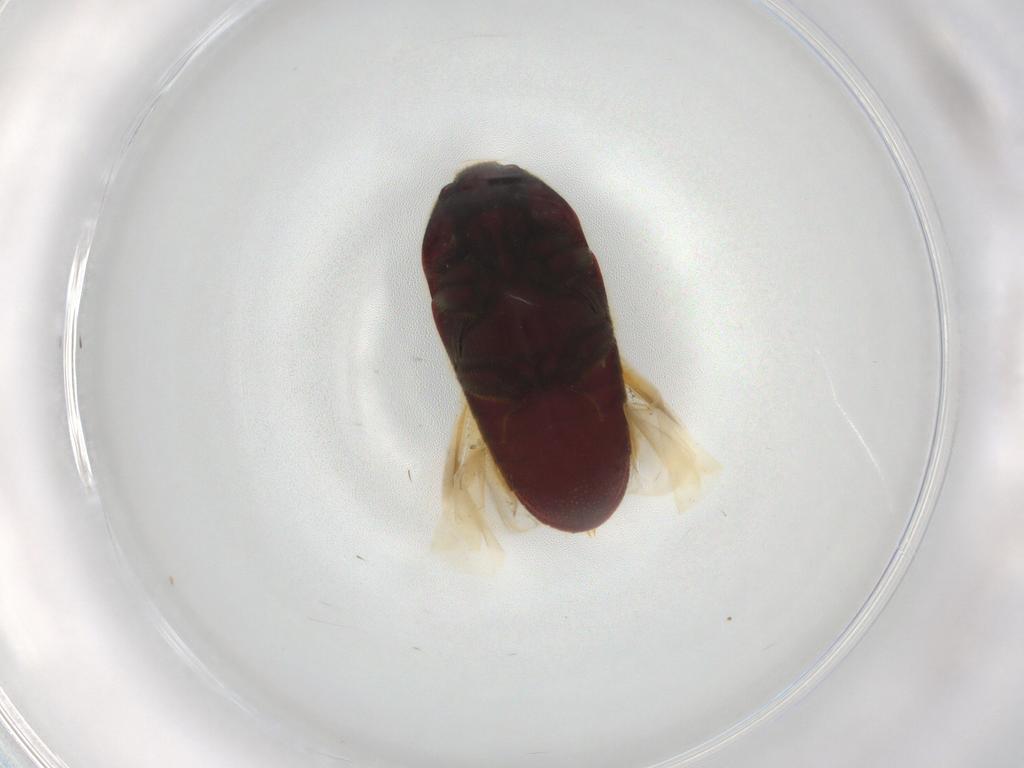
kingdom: Animalia
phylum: Arthropoda
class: Insecta
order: Coleoptera
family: Throscidae
